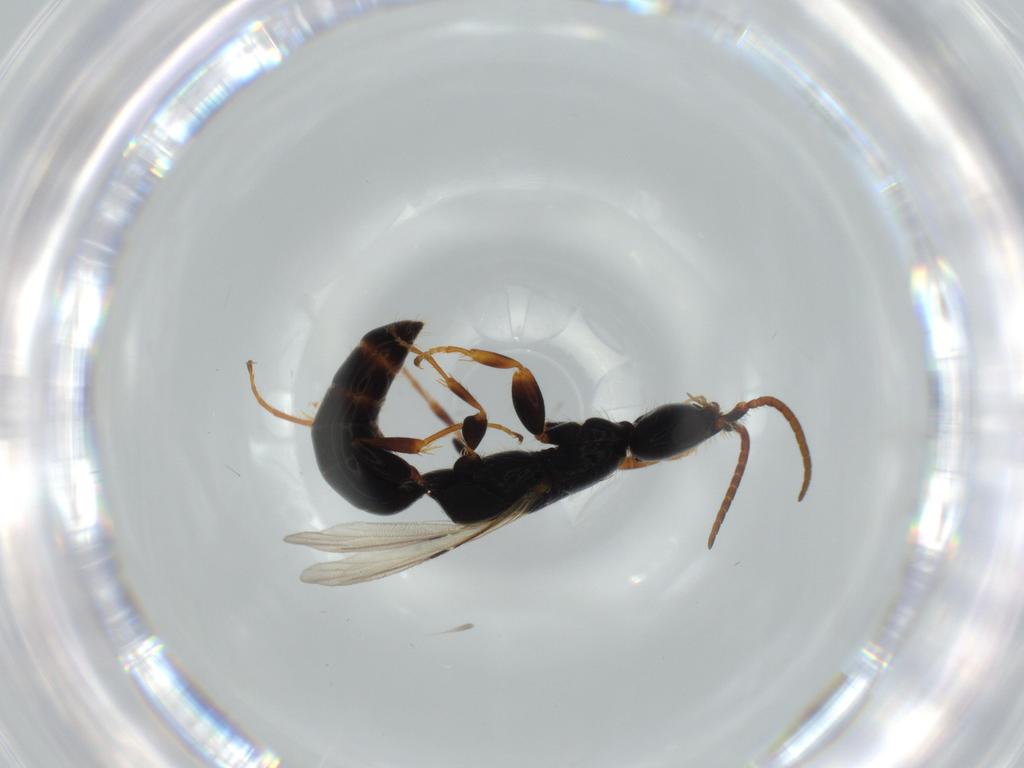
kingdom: Animalia
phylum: Arthropoda
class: Insecta
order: Hymenoptera
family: Bethylidae
